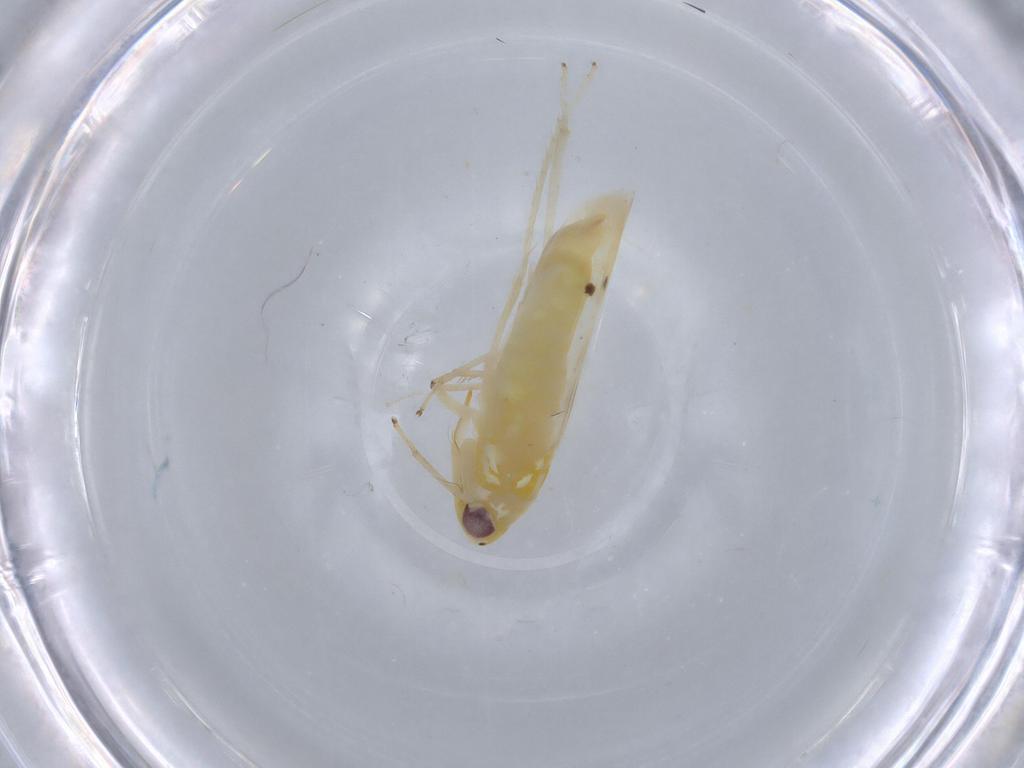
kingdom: Animalia
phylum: Arthropoda
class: Insecta
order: Hemiptera
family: Cicadellidae
